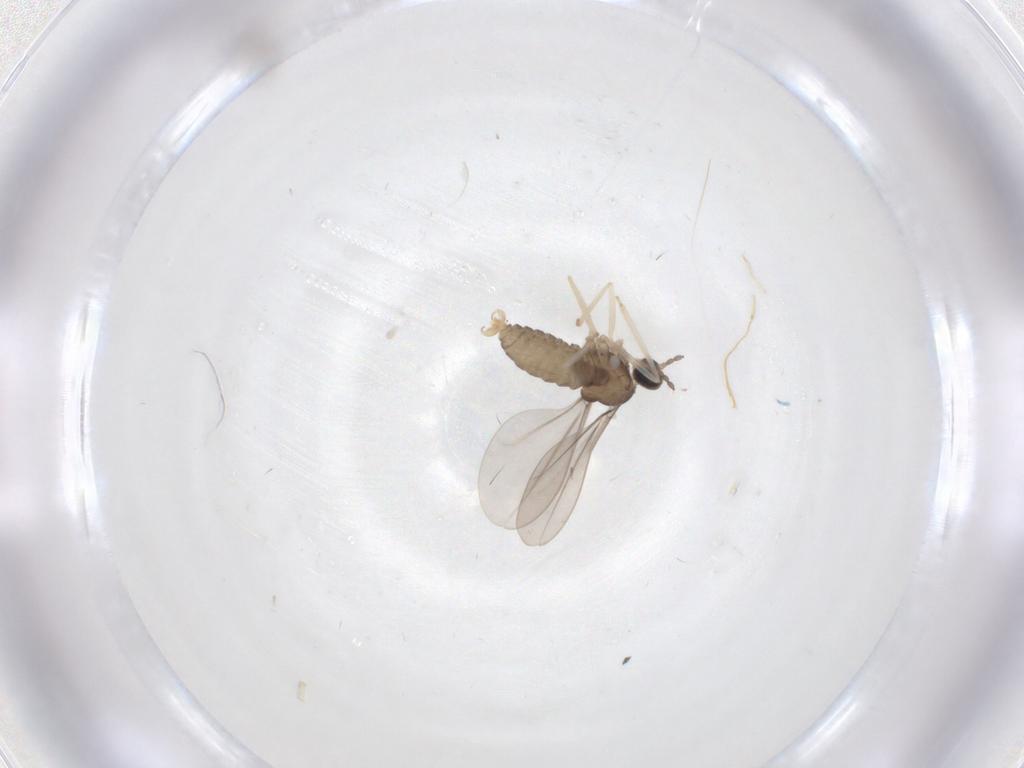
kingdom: Animalia
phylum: Arthropoda
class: Insecta
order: Diptera
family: Cecidomyiidae
